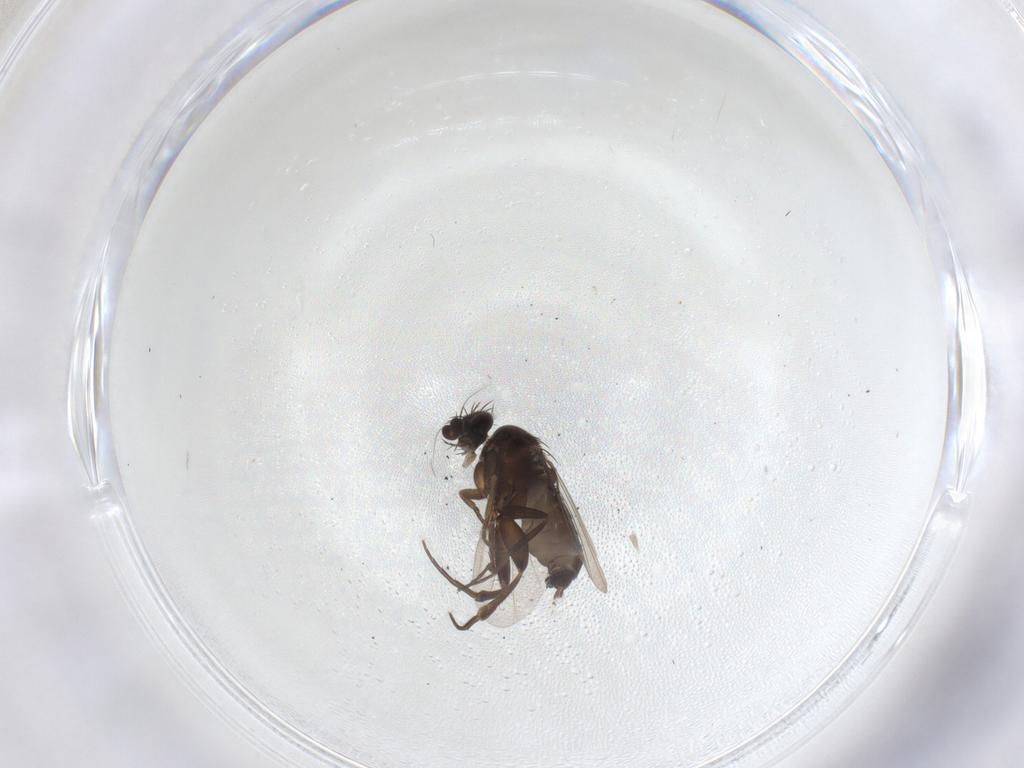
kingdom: Animalia
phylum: Arthropoda
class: Insecta
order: Diptera
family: Phoridae
